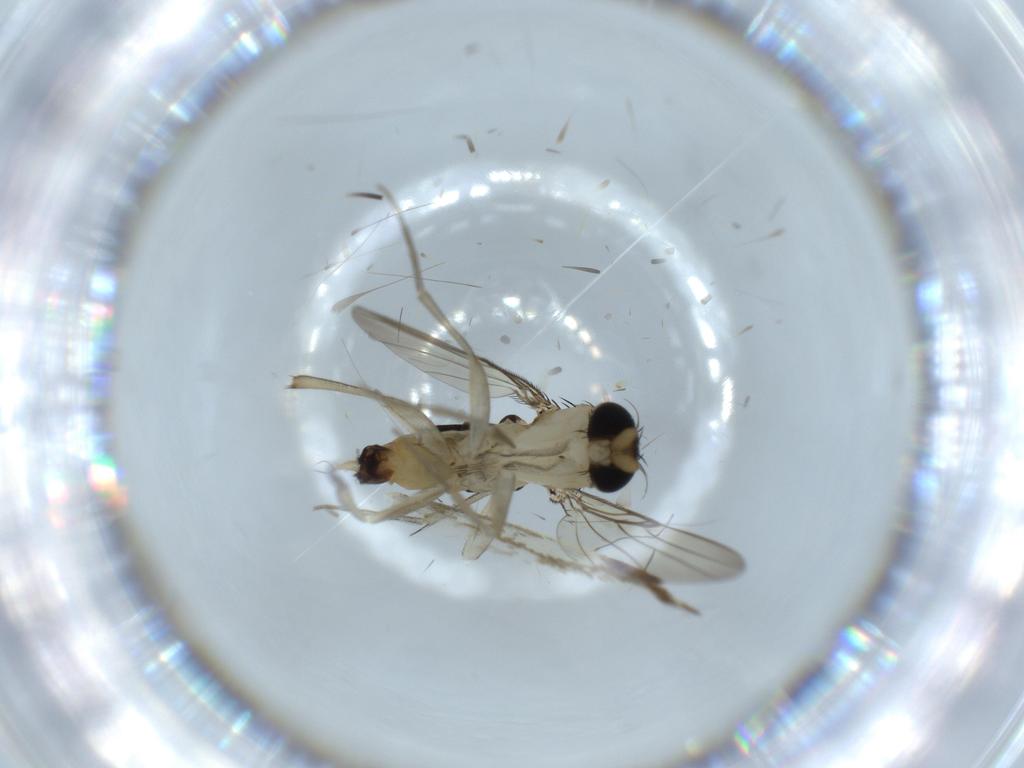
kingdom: Animalia
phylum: Arthropoda
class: Insecta
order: Diptera
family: Phoridae
